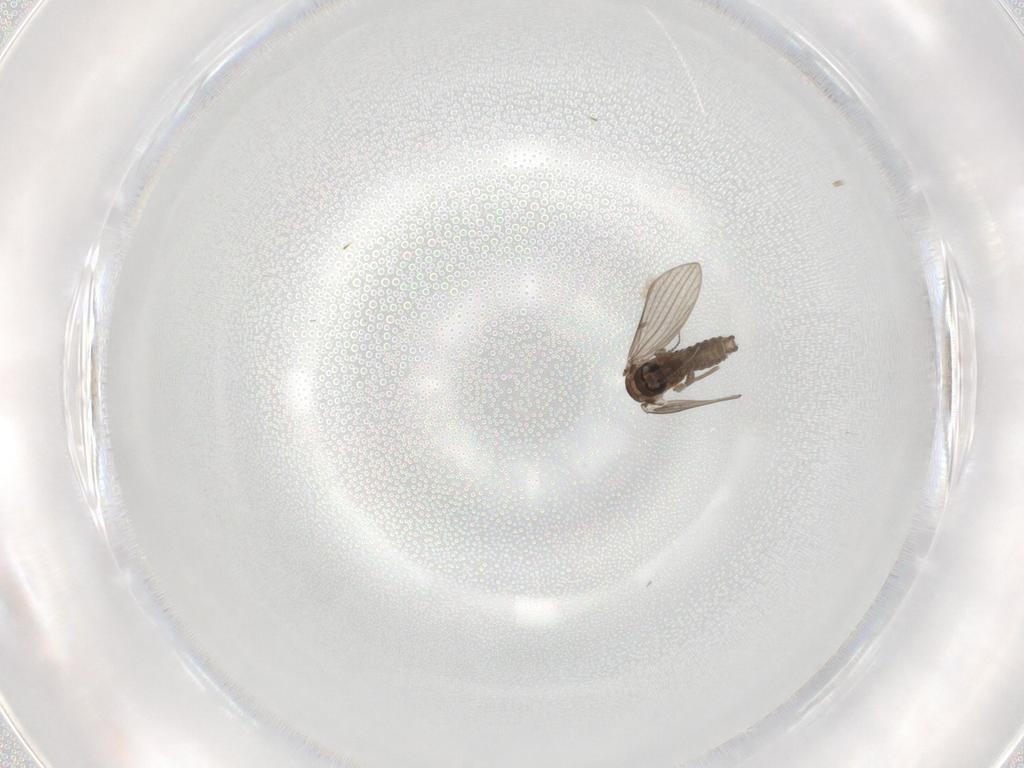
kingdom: Animalia
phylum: Arthropoda
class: Insecta
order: Diptera
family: Psychodidae
